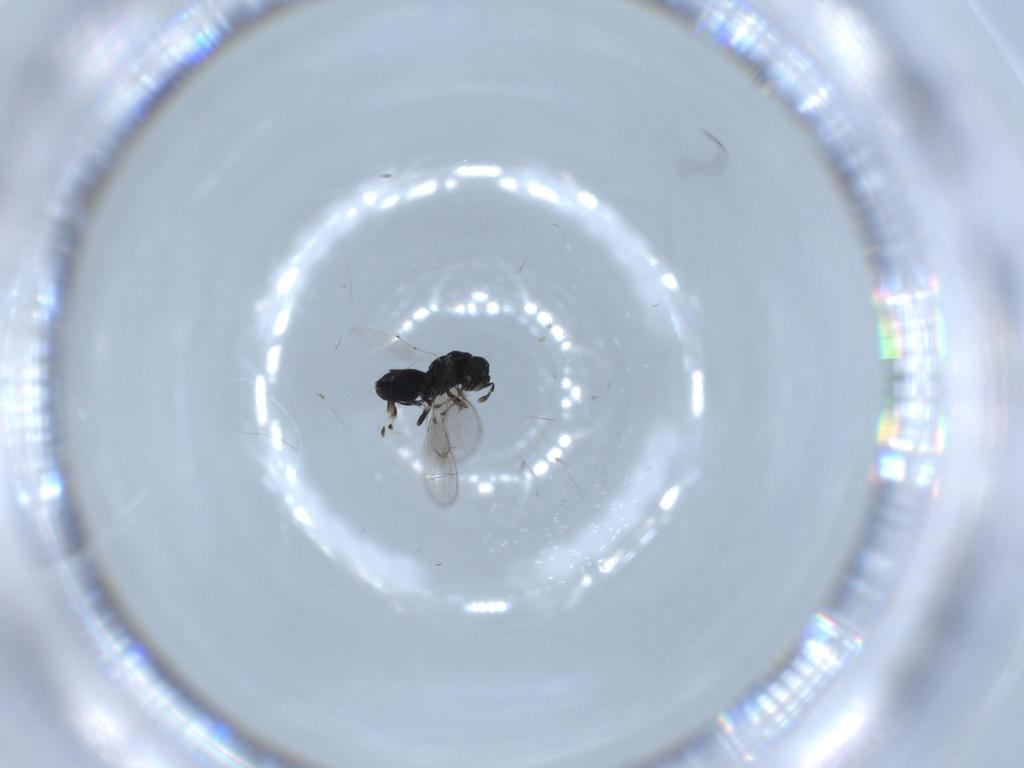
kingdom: Animalia
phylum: Arthropoda
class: Insecta
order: Hymenoptera
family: Eulophidae
